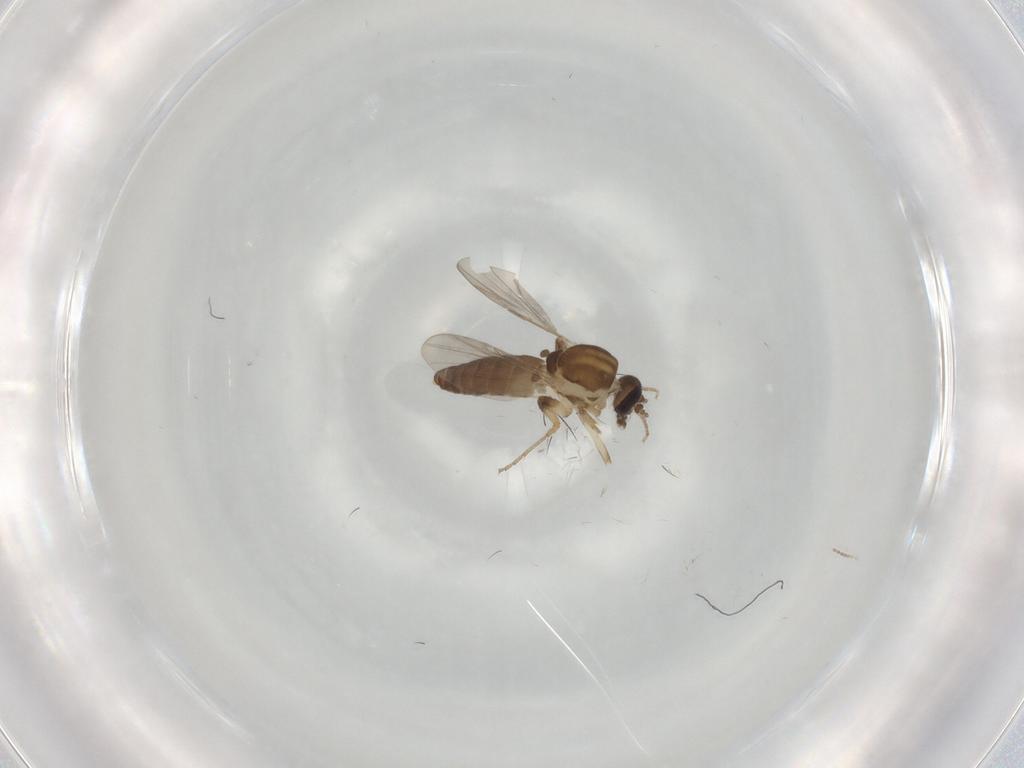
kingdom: Animalia
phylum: Arthropoda
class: Insecta
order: Diptera
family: Ceratopogonidae
